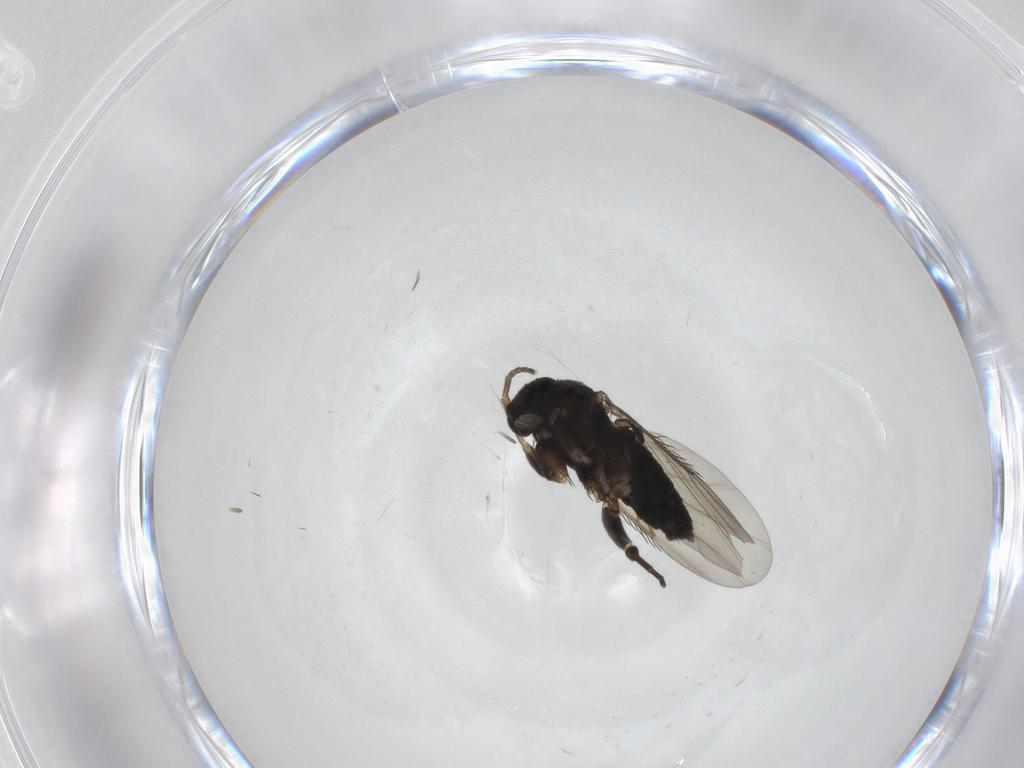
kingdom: Animalia
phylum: Arthropoda
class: Insecta
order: Diptera
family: Phoridae
